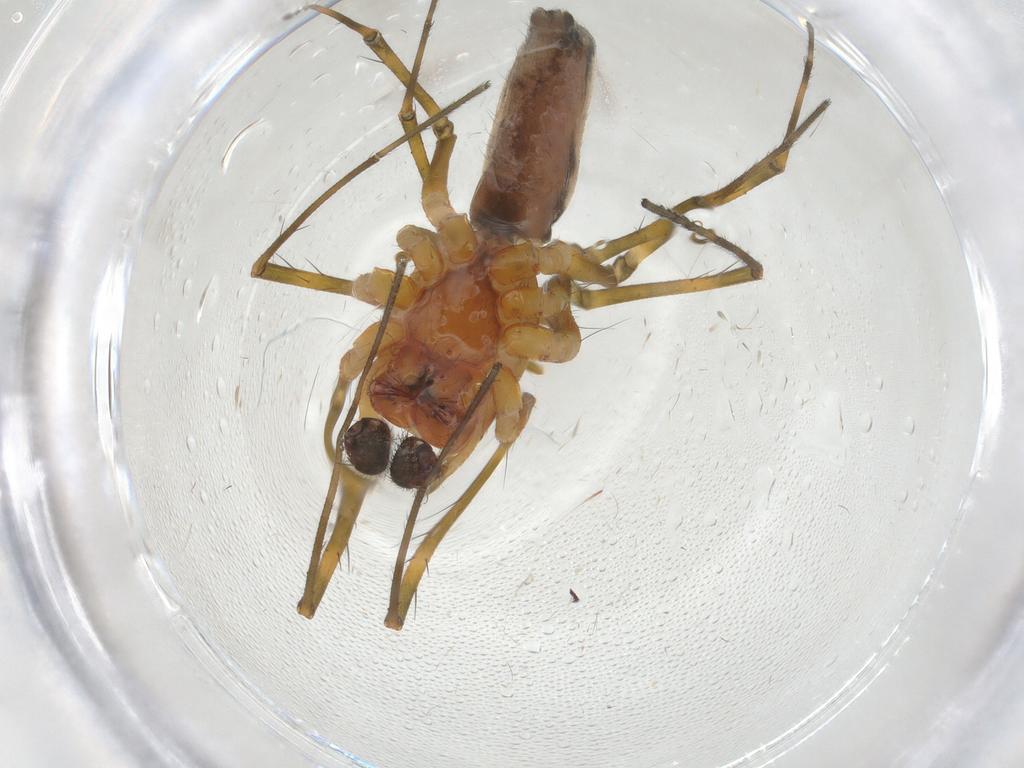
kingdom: Animalia
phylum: Arthropoda
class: Arachnida
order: Araneae
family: Linyphiidae
